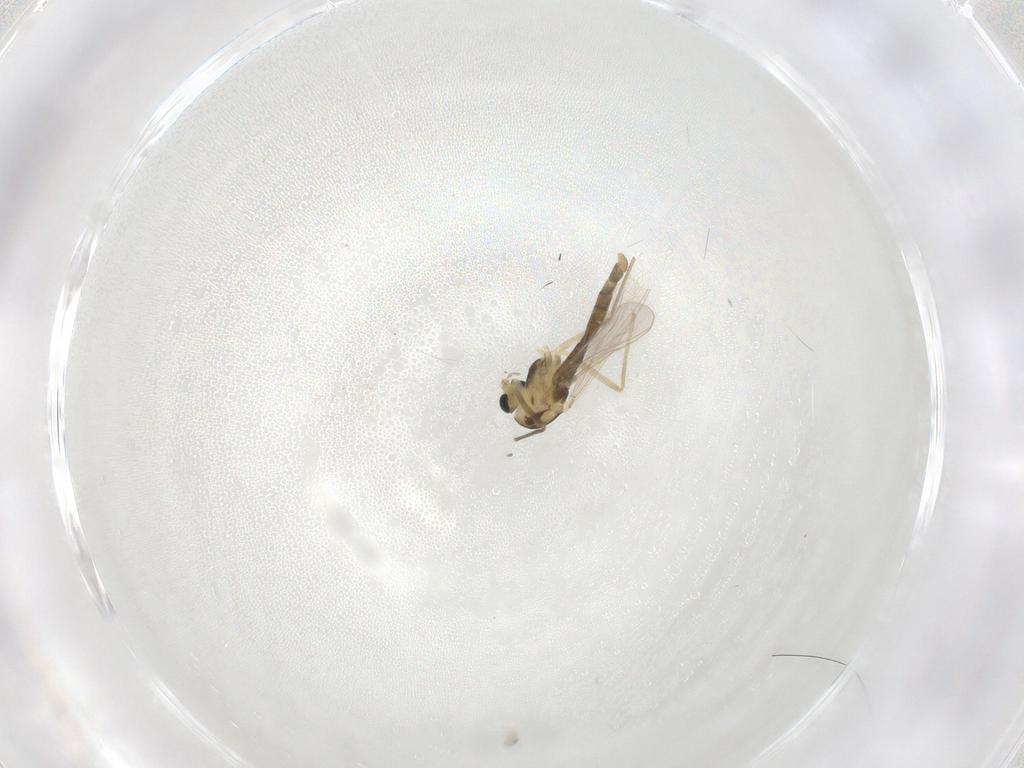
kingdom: Animalia
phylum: Arthropoda
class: Insecta
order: Diptera
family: Chironomidae
